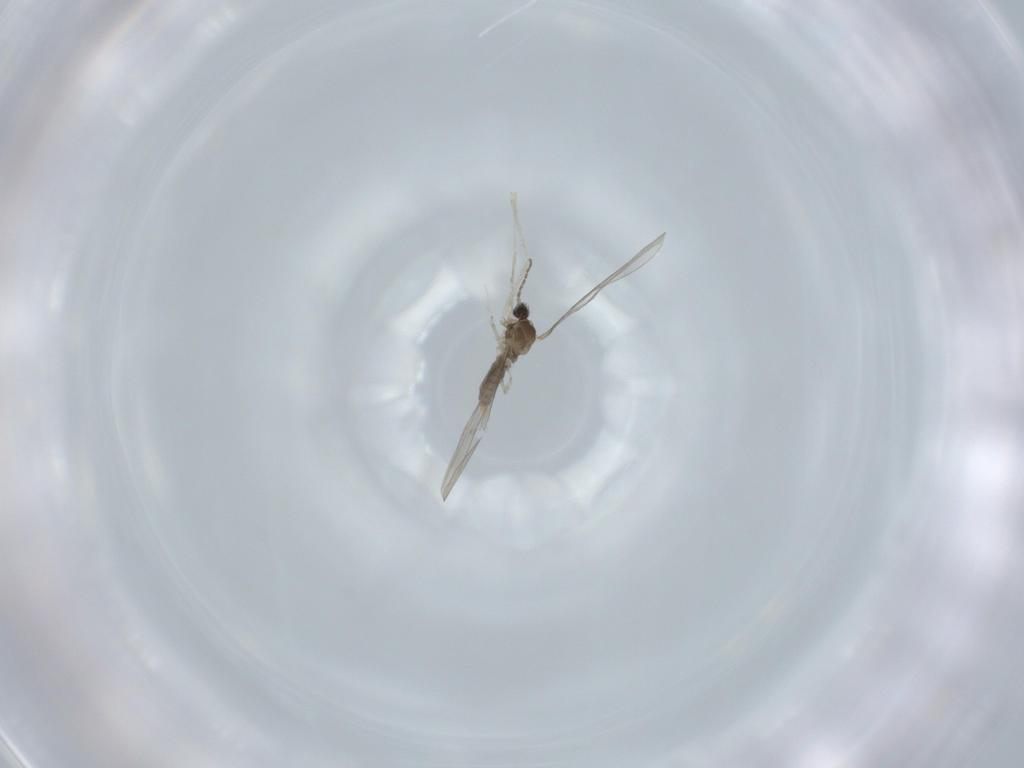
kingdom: Animalia
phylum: Arthropoda
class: Insecta
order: Diptera
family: Cecidomyiidae
